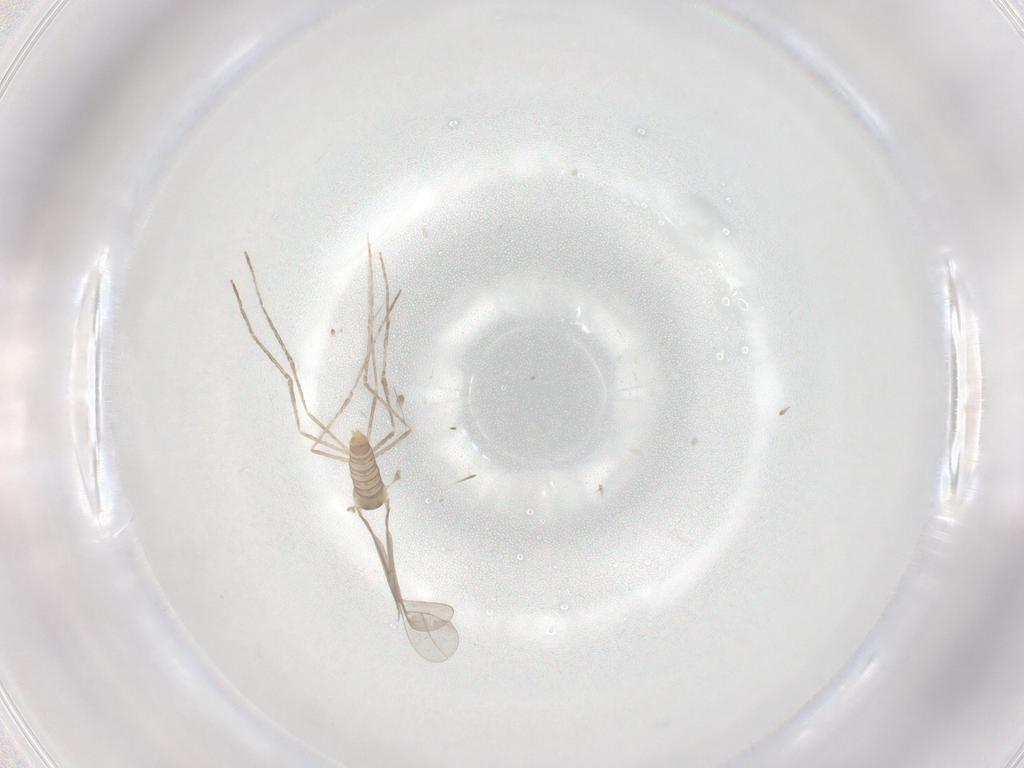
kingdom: Animalia
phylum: Arthropoda
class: Insecta
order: Diptera
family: Cecidomyiidae
